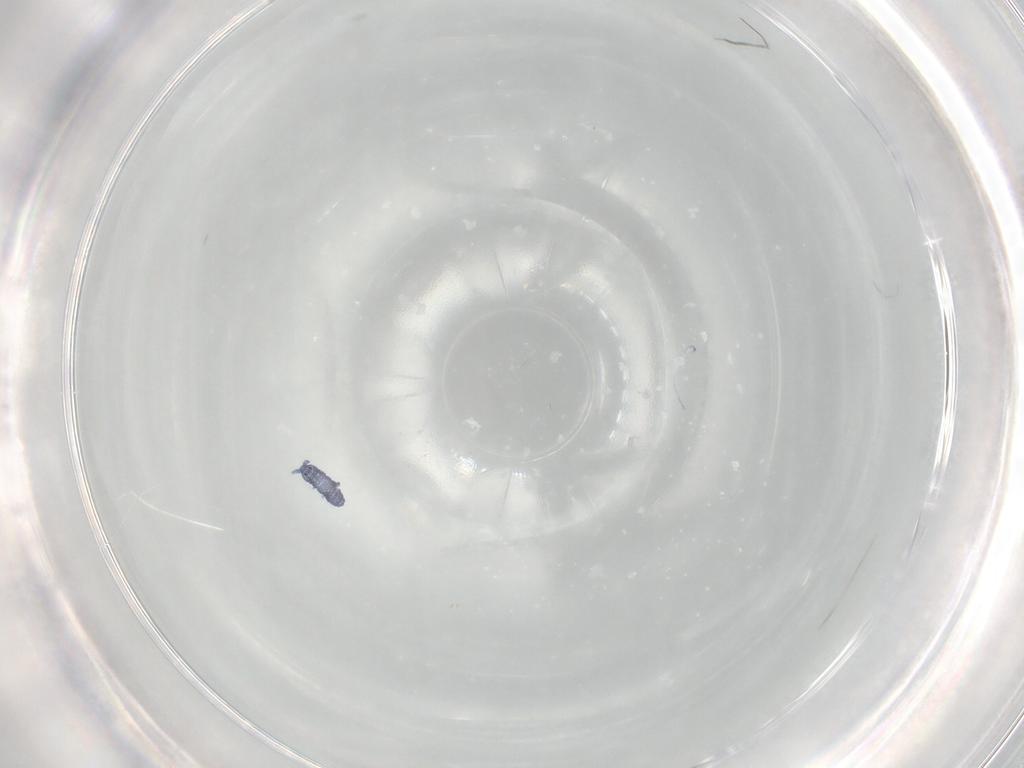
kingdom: Animalia
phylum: Arthropoda
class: Collembola
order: Poduromorpha
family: Hypogastruridae
